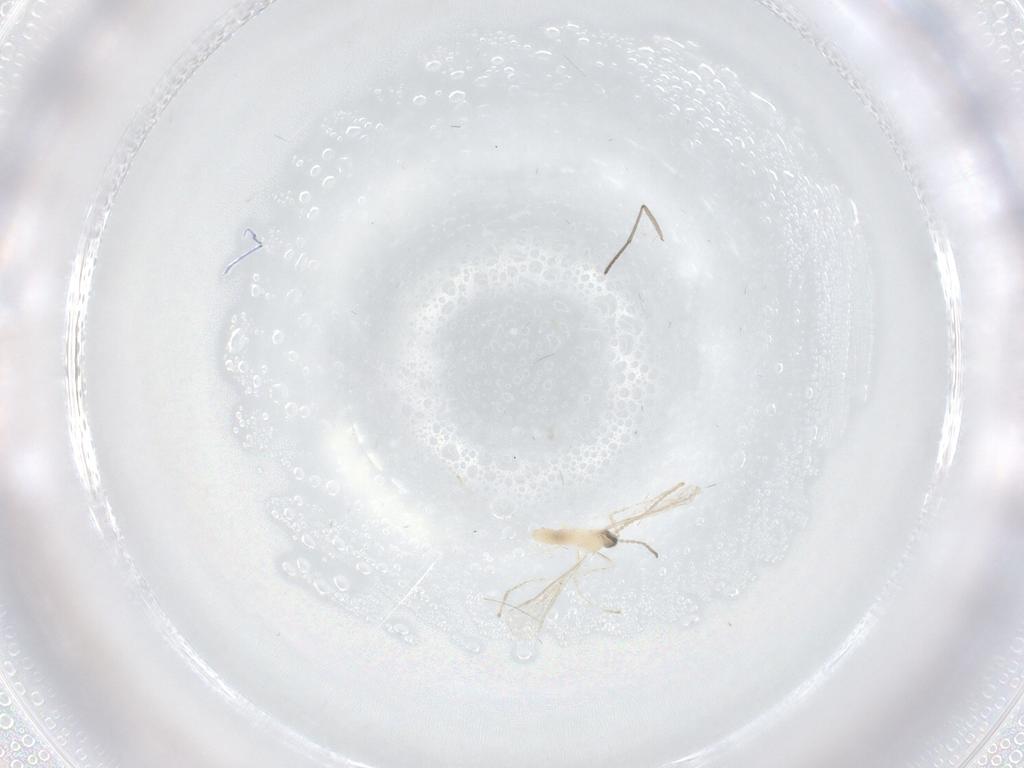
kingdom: Animalia
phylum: Arthropoda
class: Insecta
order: Diptera
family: Sciaridae
